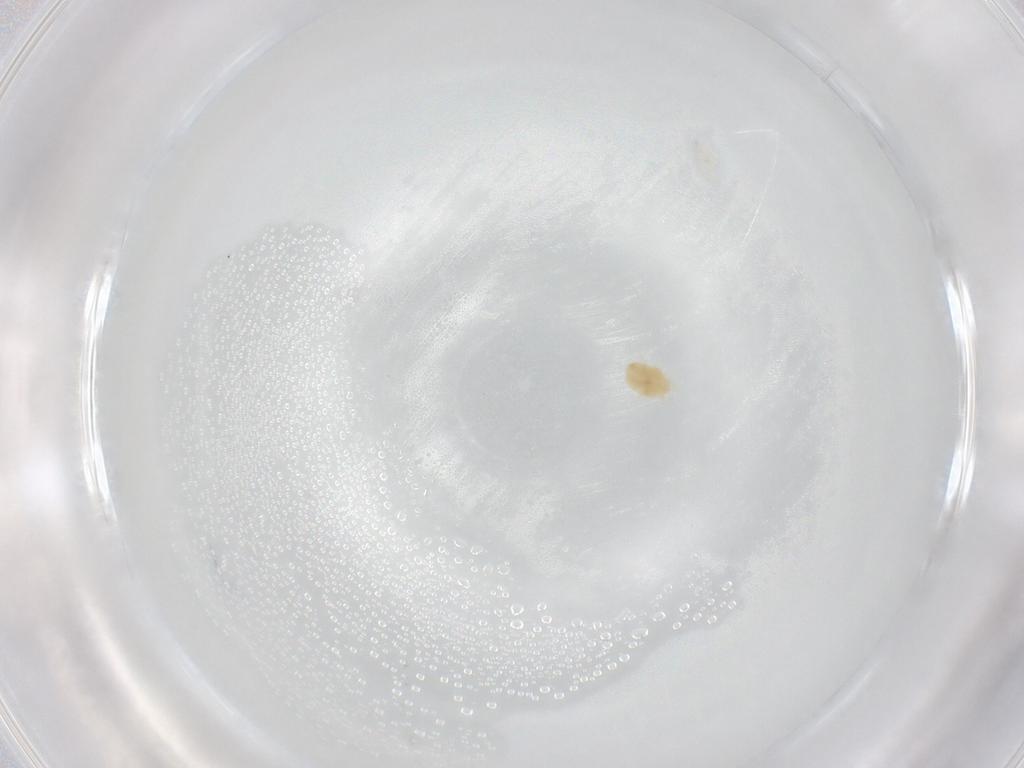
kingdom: Animalia
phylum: Arthropoda
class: Arachnida
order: Trombidiformes
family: Stigmaeidae
